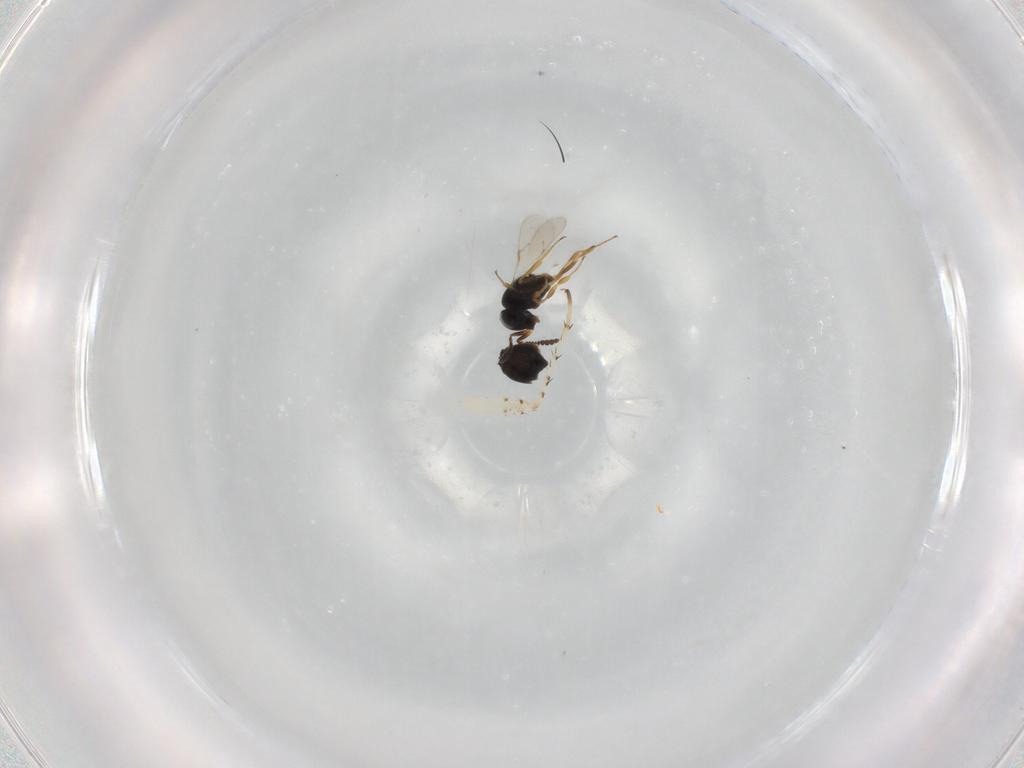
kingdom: Animalia
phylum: Arthropoda
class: Insecta
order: Hymenoptera
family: Scelionidae
